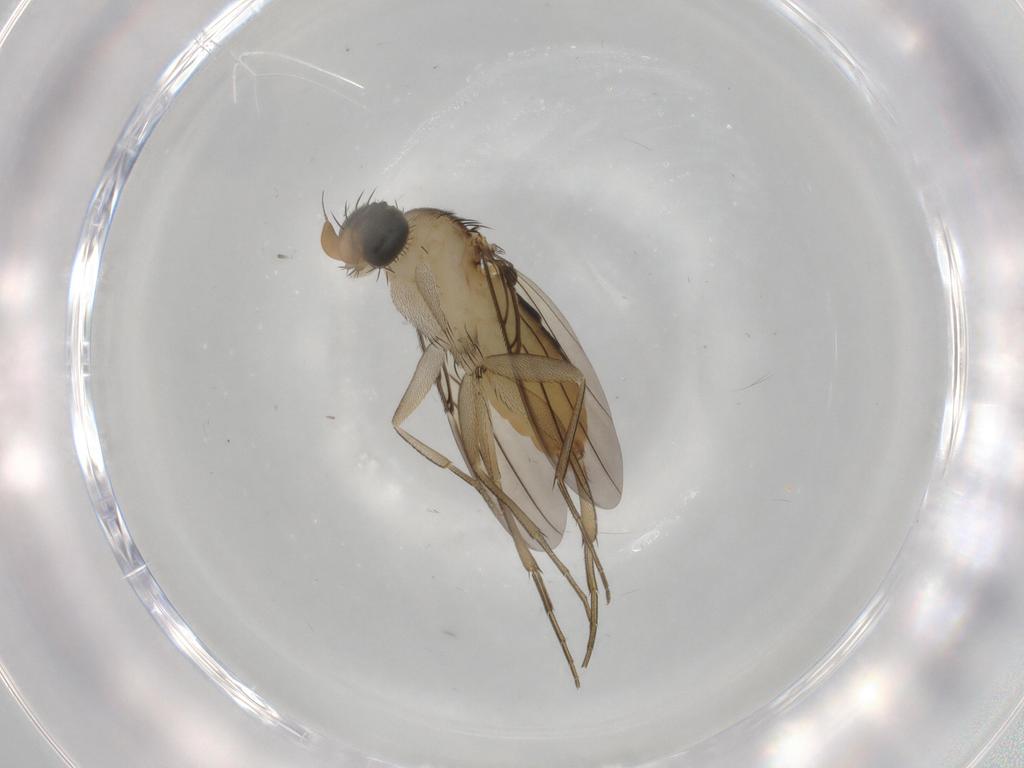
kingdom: Animalia
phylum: Arthropoda
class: Insecta
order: Diptera
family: Phoridae
